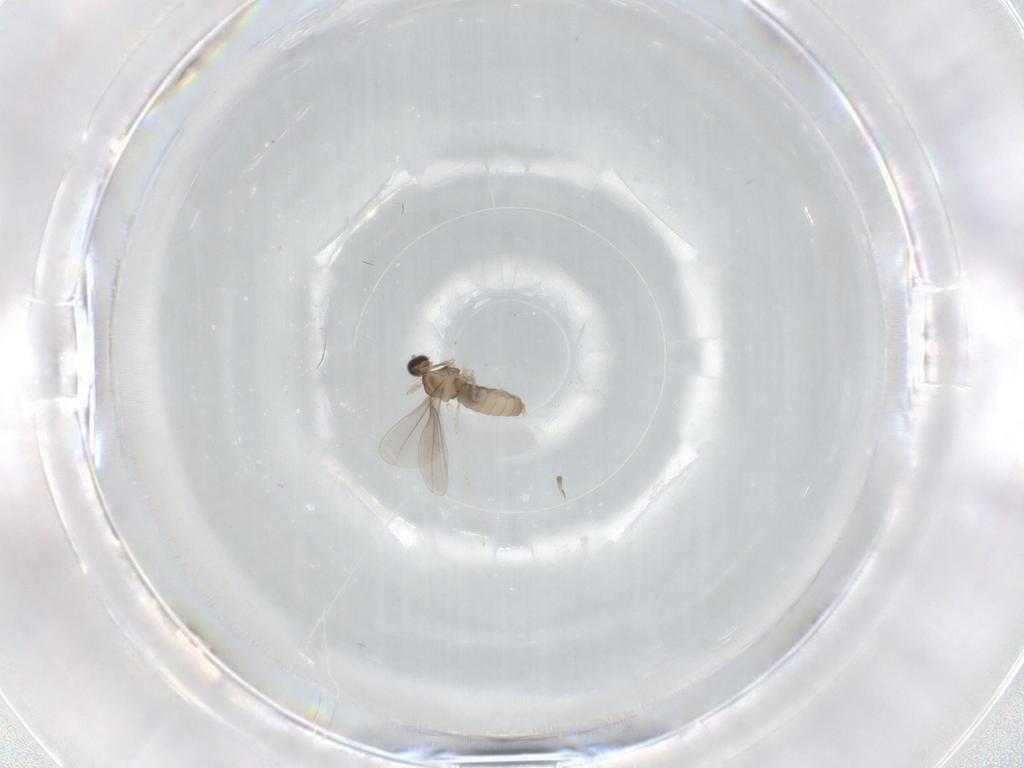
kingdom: Animalia
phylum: Arthropoda
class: Insecta
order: Diptera
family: Cecidomyiidae
